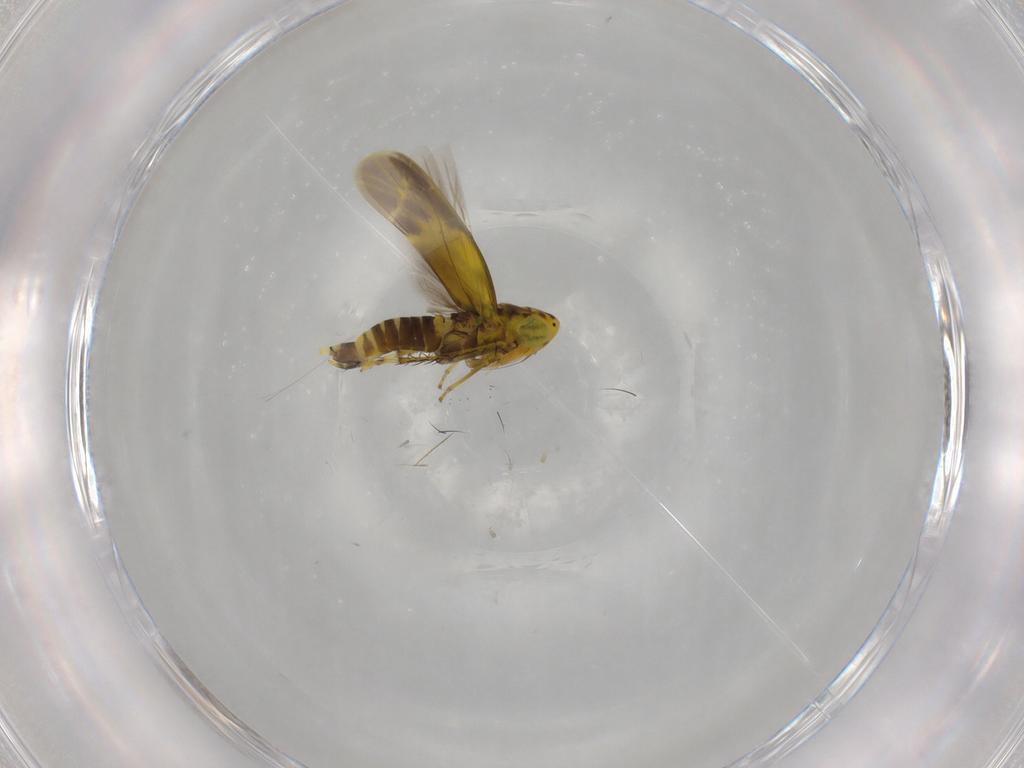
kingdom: Animalia
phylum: Arthropoda
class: Insecta
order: Hemiptera
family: Cicadellidae
